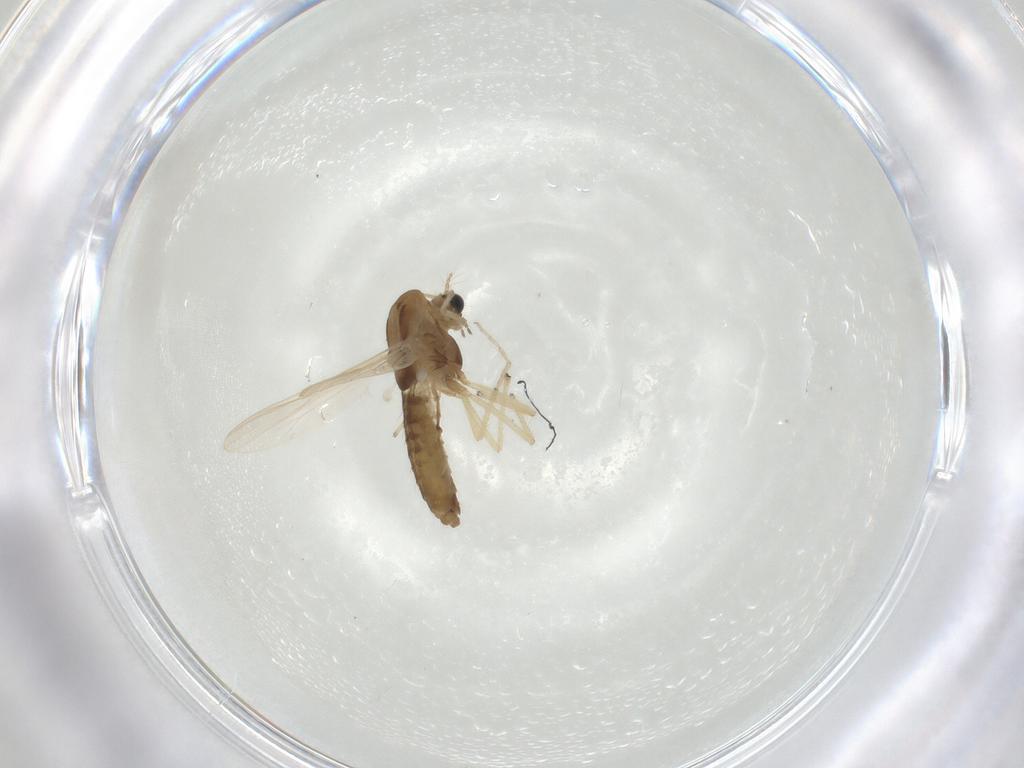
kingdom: Animalia
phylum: Arthropoda
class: Insecta
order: Diptera
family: Chironomidae
